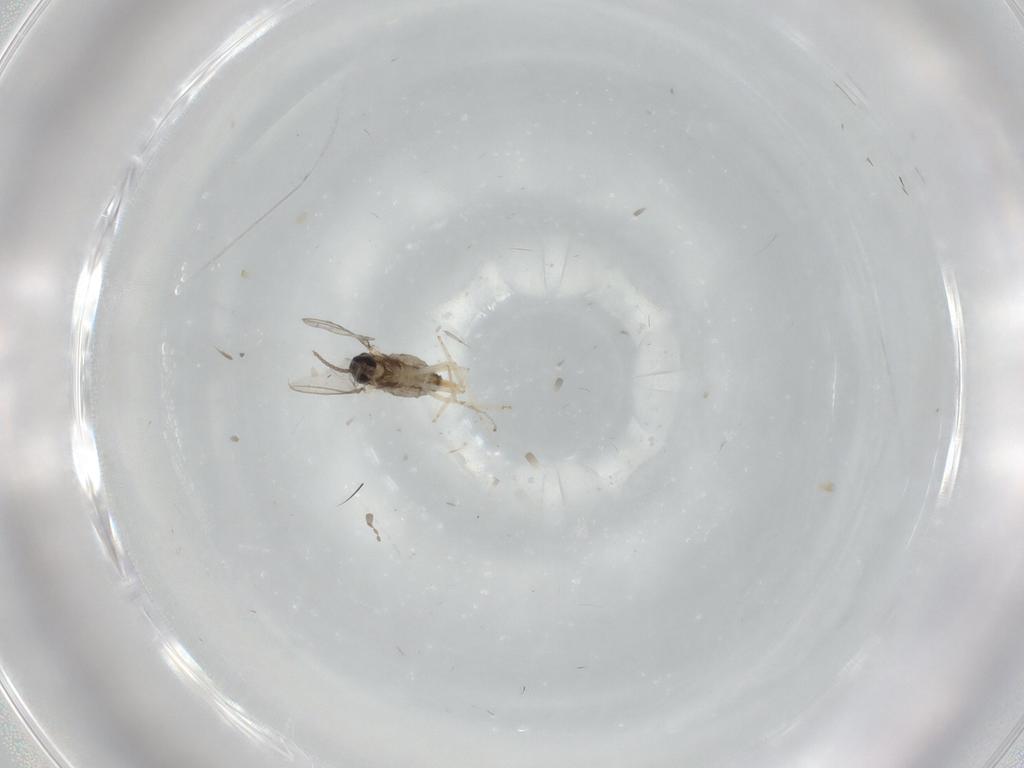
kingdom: Animalia
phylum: Arthropoda
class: Insecta
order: Diptera
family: Cecidomyiidae
